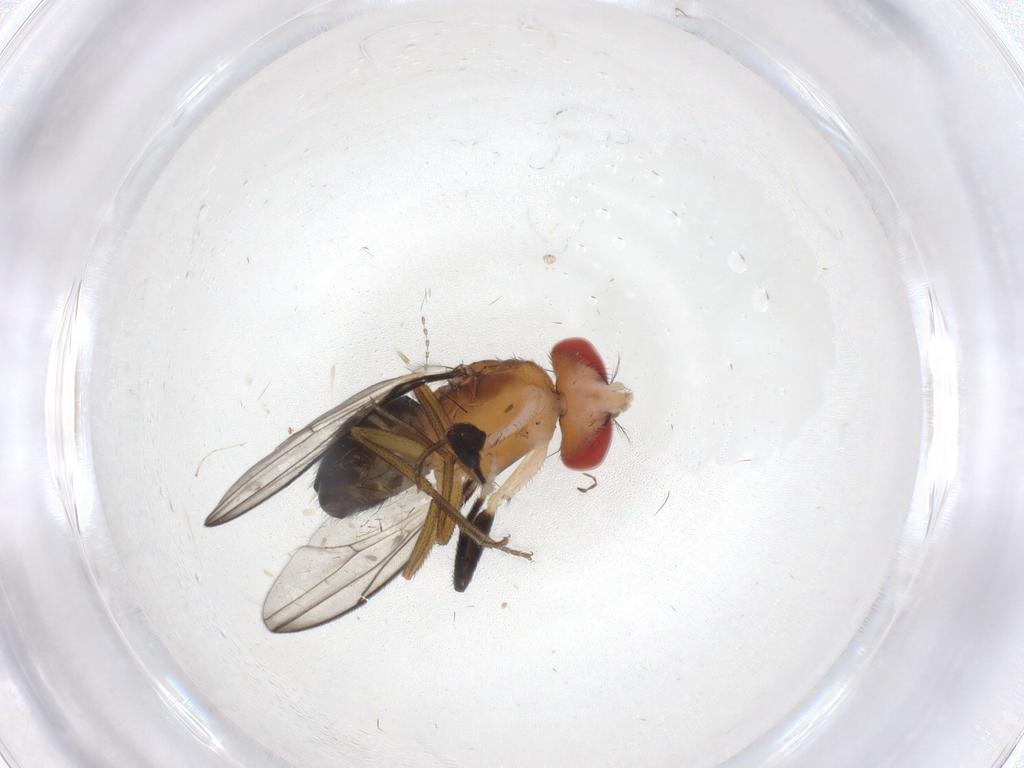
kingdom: Animalia
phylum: Arthropoda
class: Insecta
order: Diptera
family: Drosophilidae
